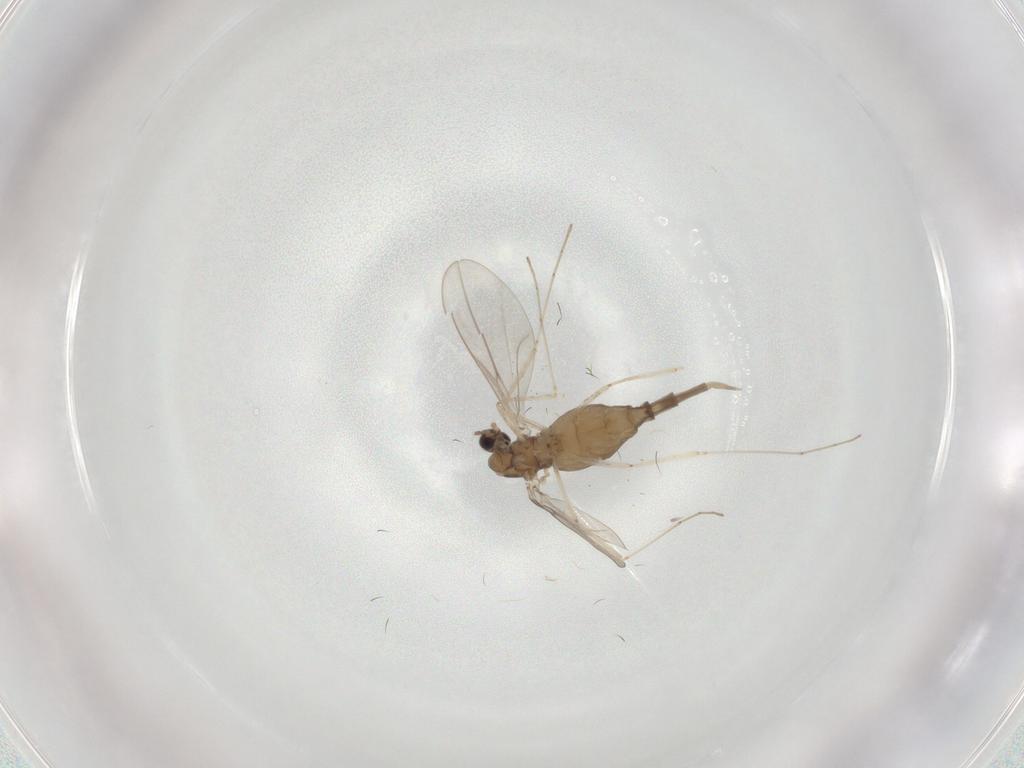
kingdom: Animalia
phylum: Arthropoda
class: Insecta
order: Diptera
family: Cecidomyiidae
